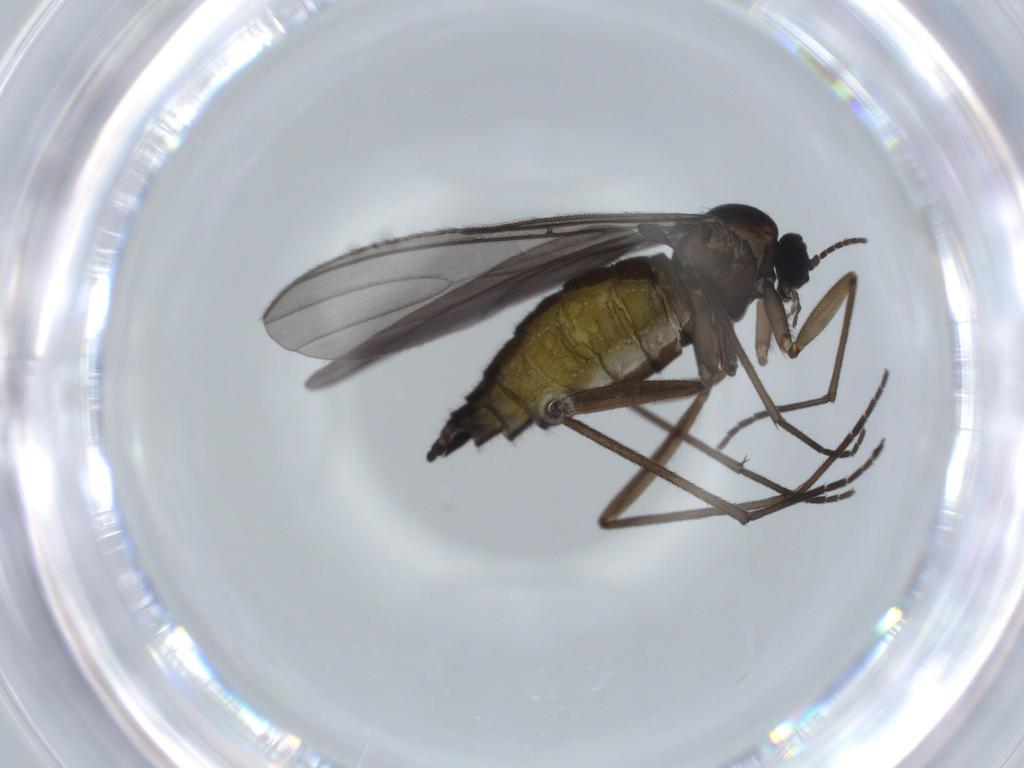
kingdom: Animalia
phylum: Arthropoda
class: Insecta
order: Diptera
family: Sciaridae
